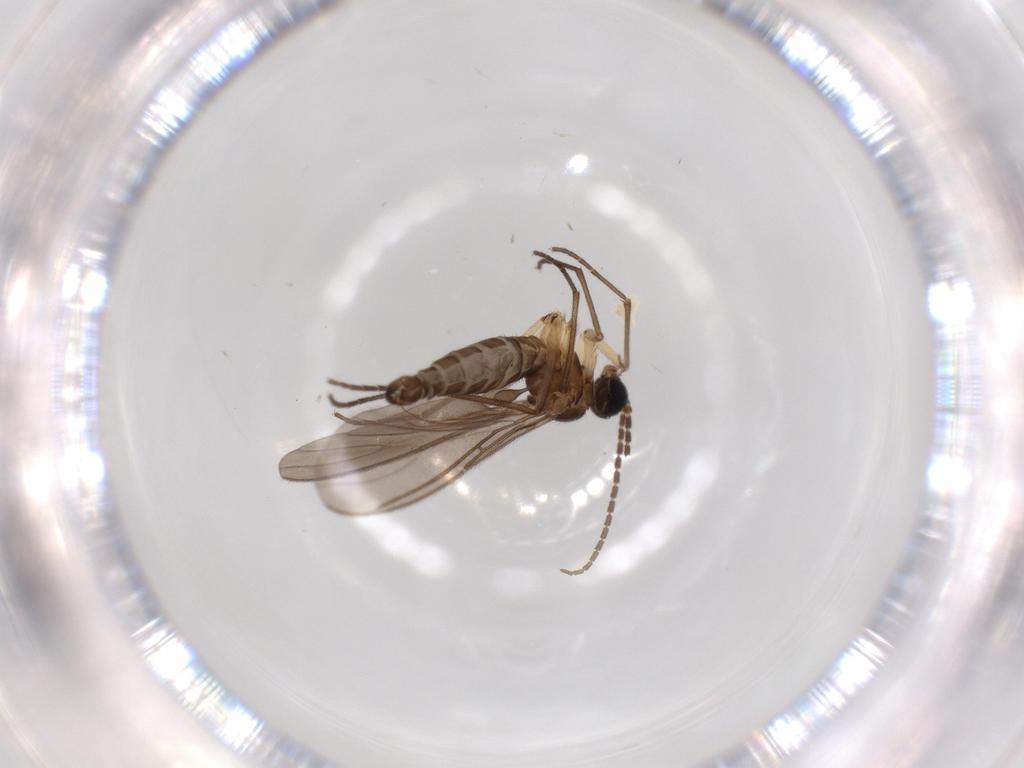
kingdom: Animalia
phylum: Arthropoda
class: Insecta
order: Diptera
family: Sciaridae
